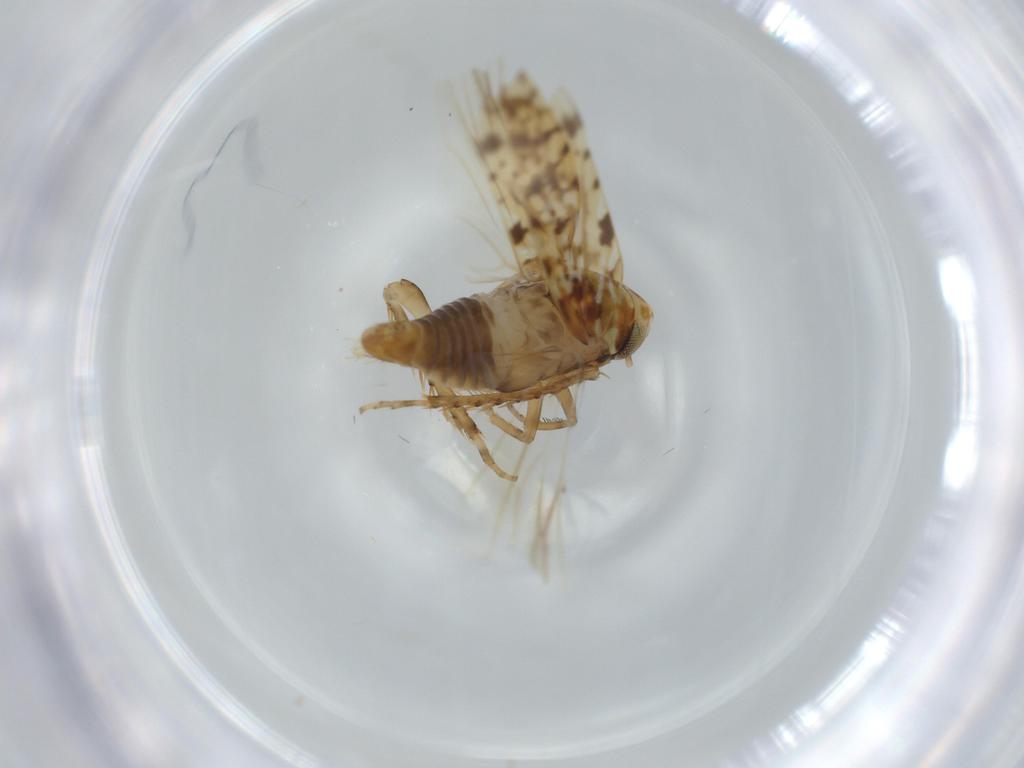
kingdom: Animalia
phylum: Arthropoda
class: Insecta
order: Hemiptera
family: Cicadellidae
